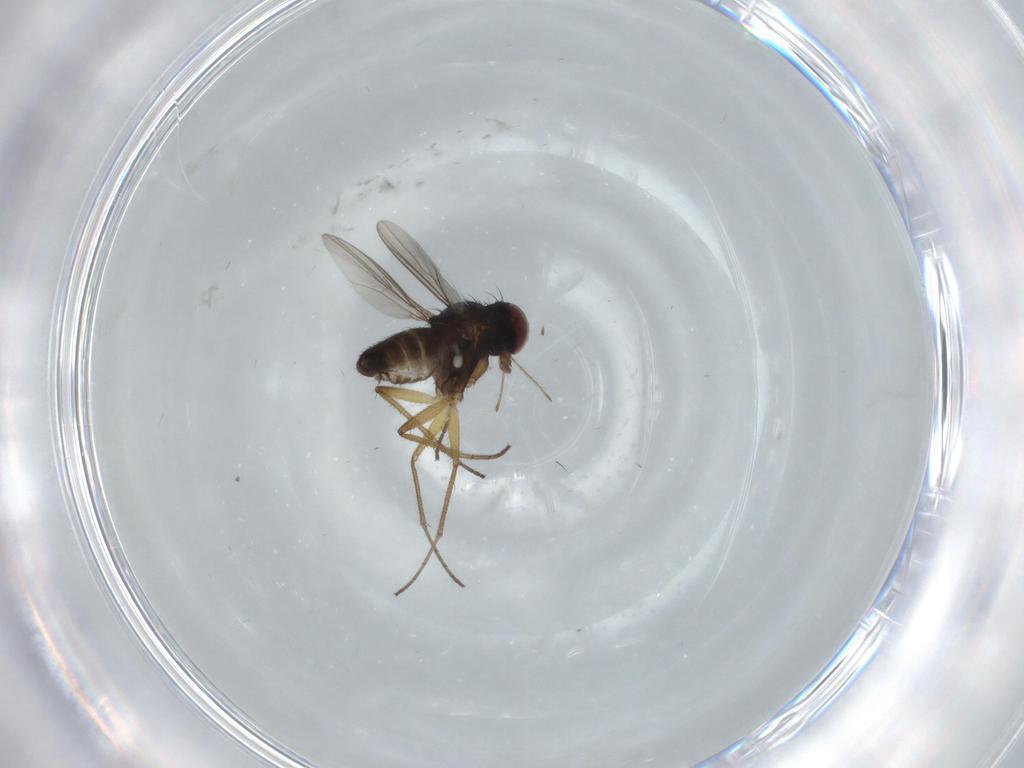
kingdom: Animalia
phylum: Arthropoda
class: Insecta
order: Diptera
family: Dolichopodidae
